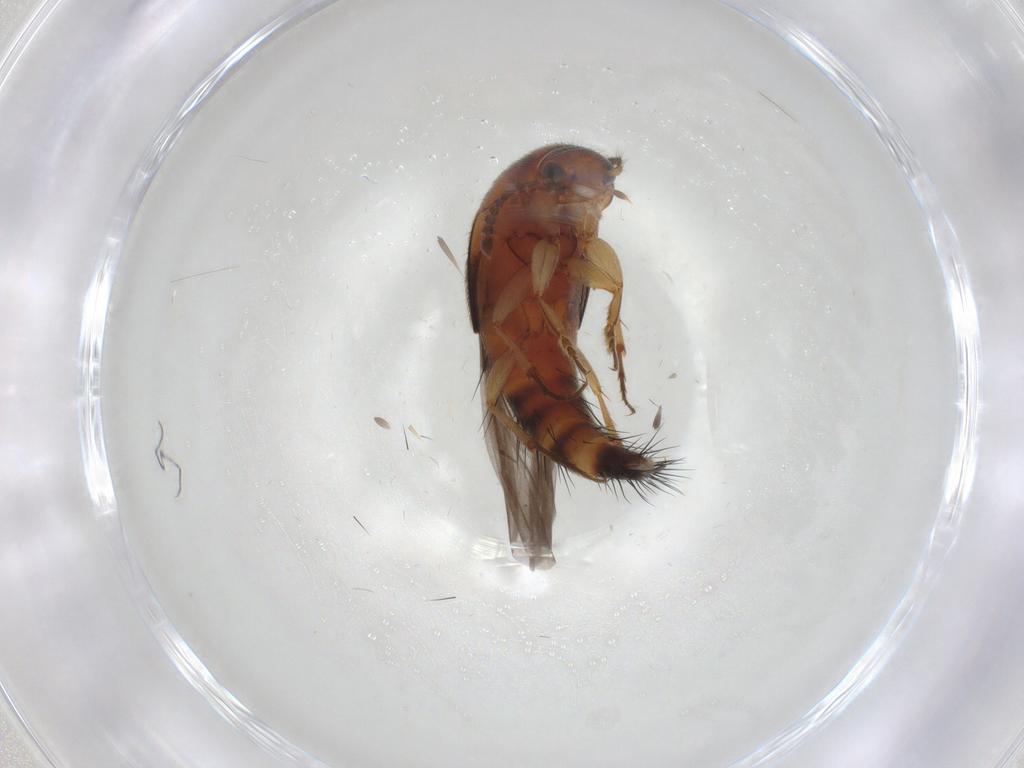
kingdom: Animalia
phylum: Arthropoda
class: Insecta
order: Coleoptera
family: Staphylinidae
